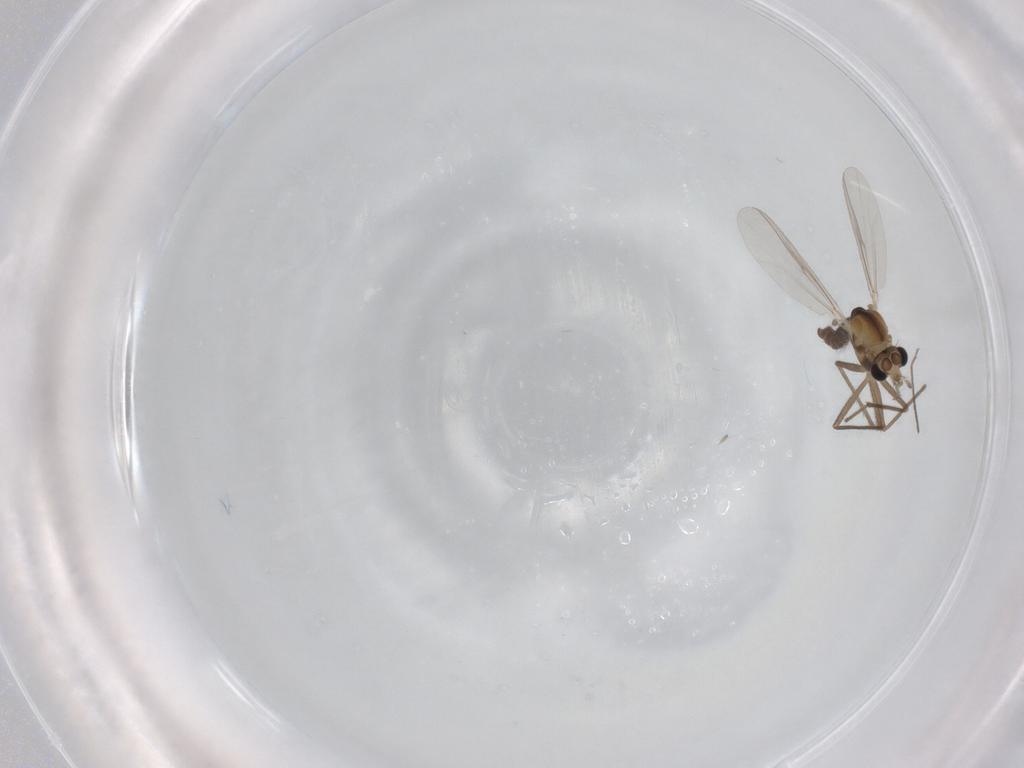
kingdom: Animalia
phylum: Arthropoda
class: Insecta
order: Diptera
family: Chironomidae
